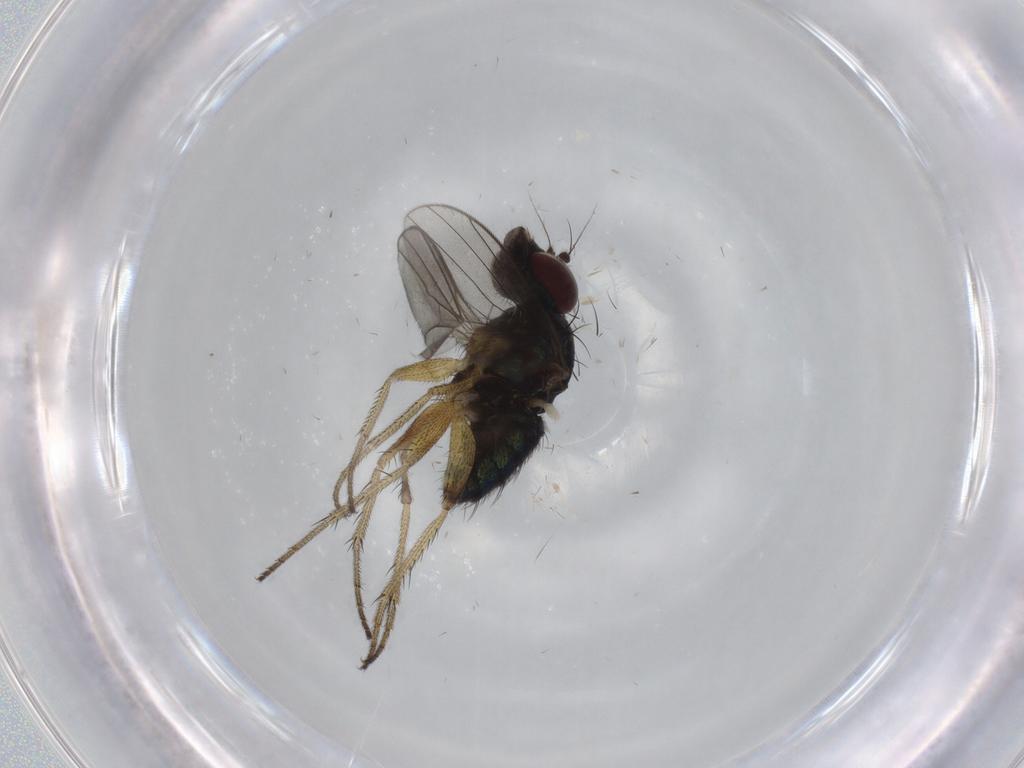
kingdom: Animalia
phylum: Arthropoda
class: Insecta
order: Diptera
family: Dolichopodidae
